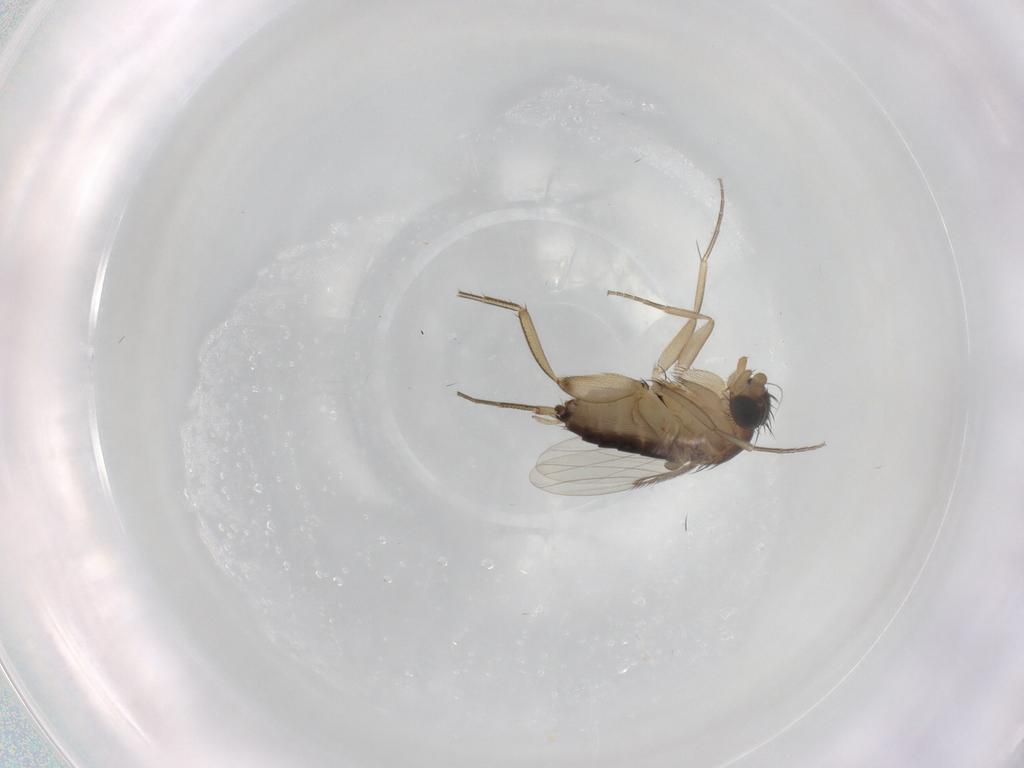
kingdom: Animalia
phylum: Arthropoda
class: Insecta
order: Diptera
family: Phoridae
